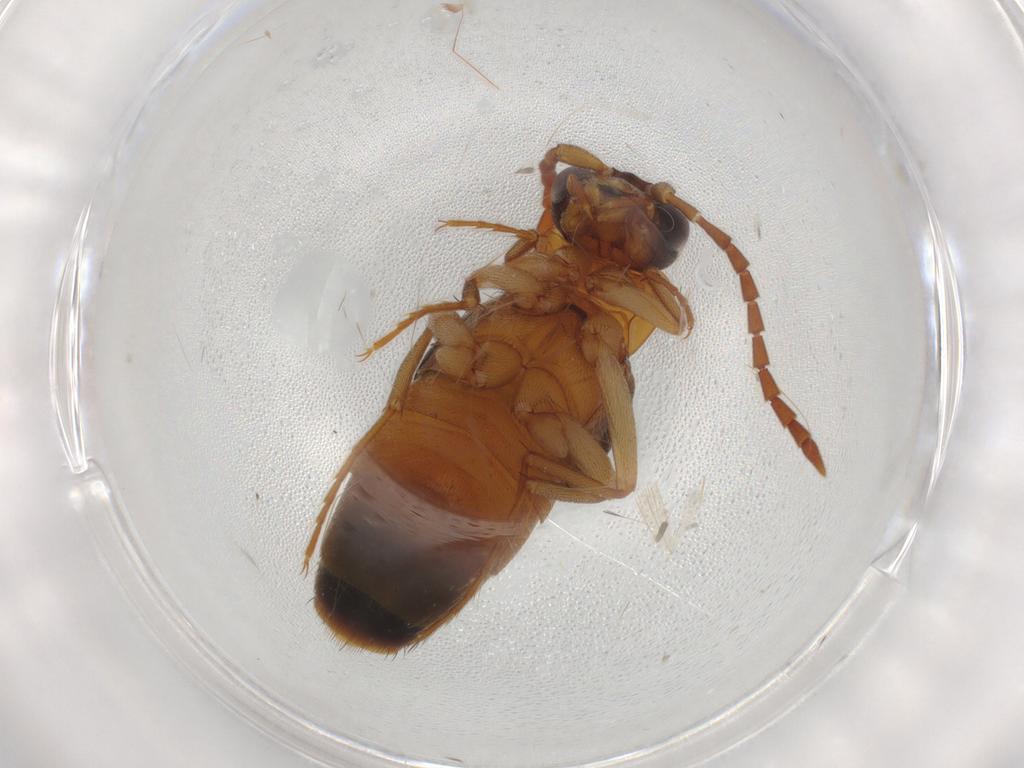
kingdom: Animalia
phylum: Arthropoda
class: Insecta
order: Coleoptera
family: Staphylinidae
